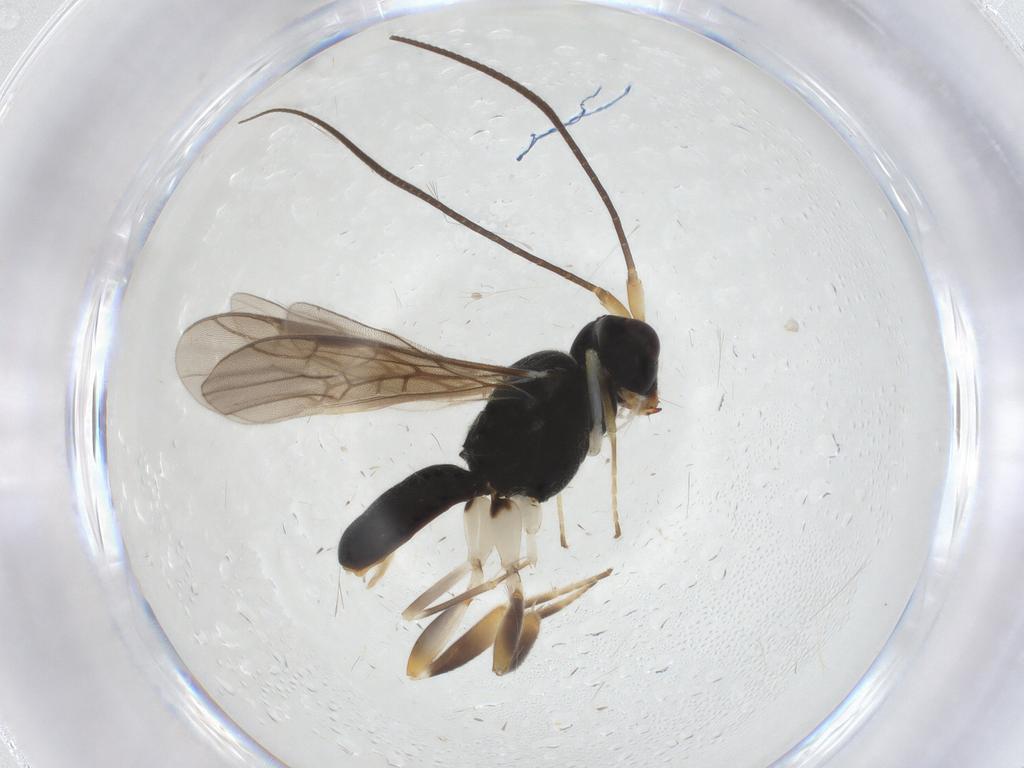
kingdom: Animalia
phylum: Arthropoda
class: Insecta
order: Hymenoptera
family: Braconidae
